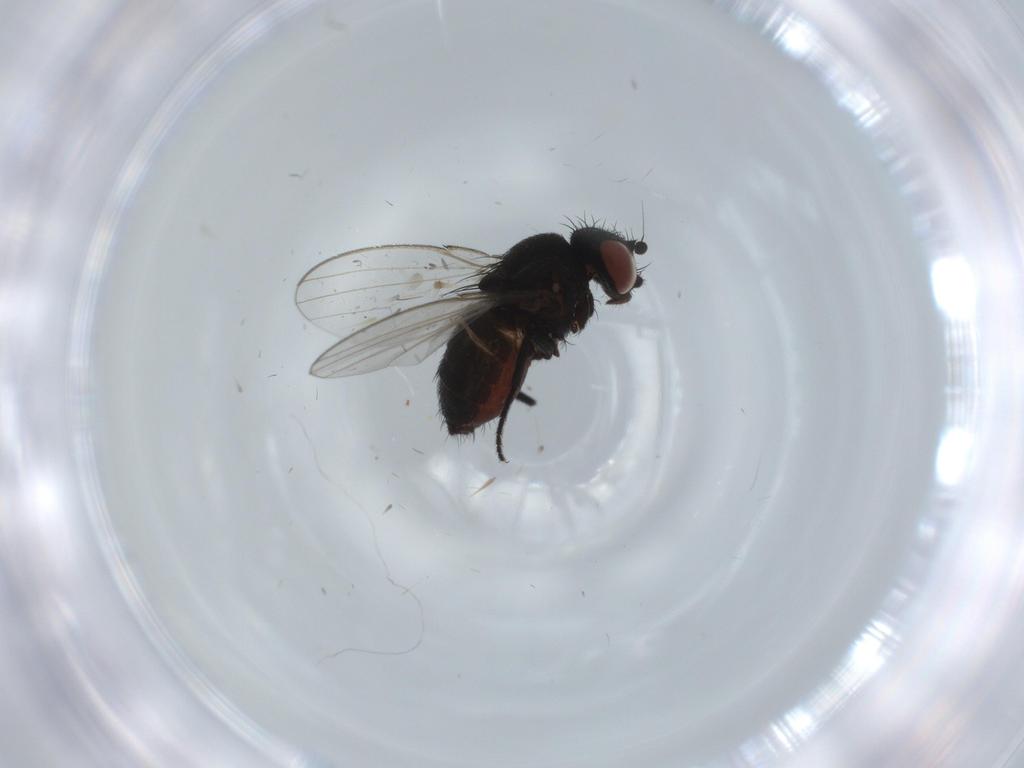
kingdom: Animalia
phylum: Arthropoda
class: Insecta
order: Diptera
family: Milichiidae
